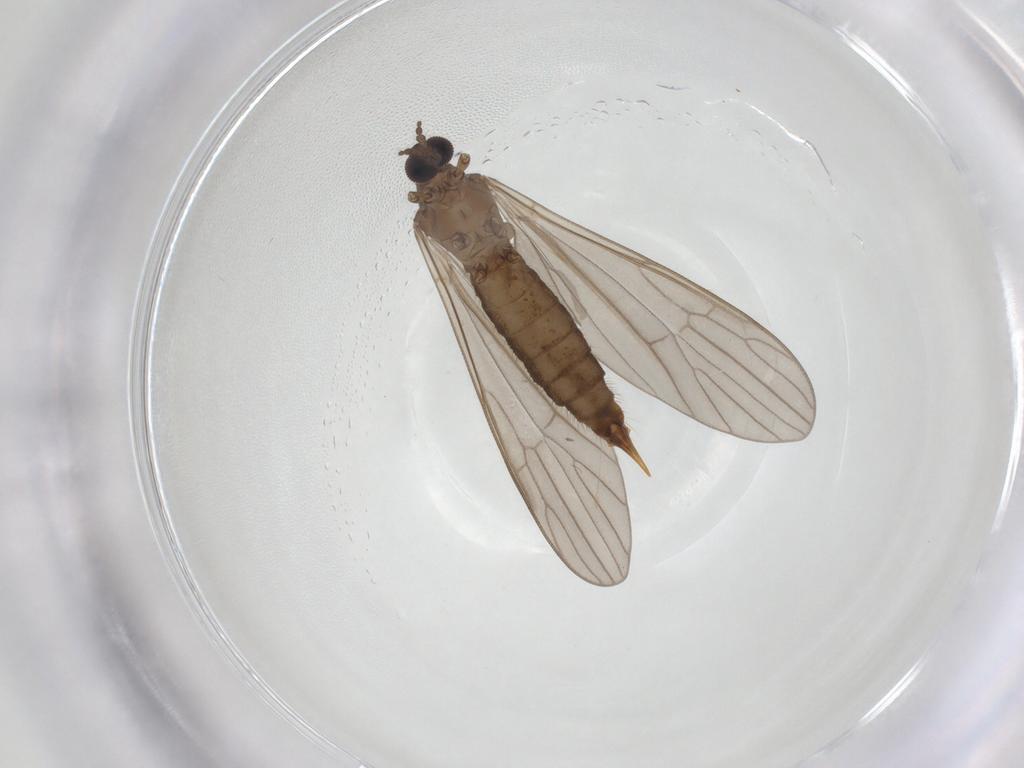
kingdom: Animalia
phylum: Arthropoda
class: Insecta
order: Diptera
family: Limoniidae
